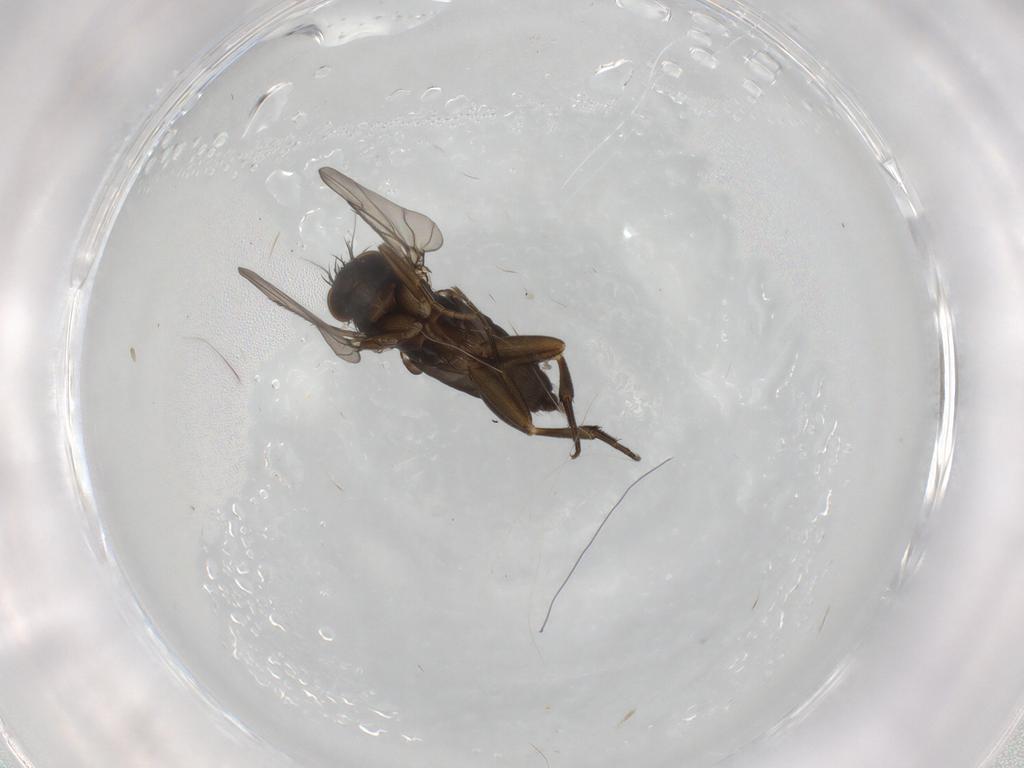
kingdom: Animalia
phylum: Arthropoda
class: Insecta
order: Diptera
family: Phoridae
